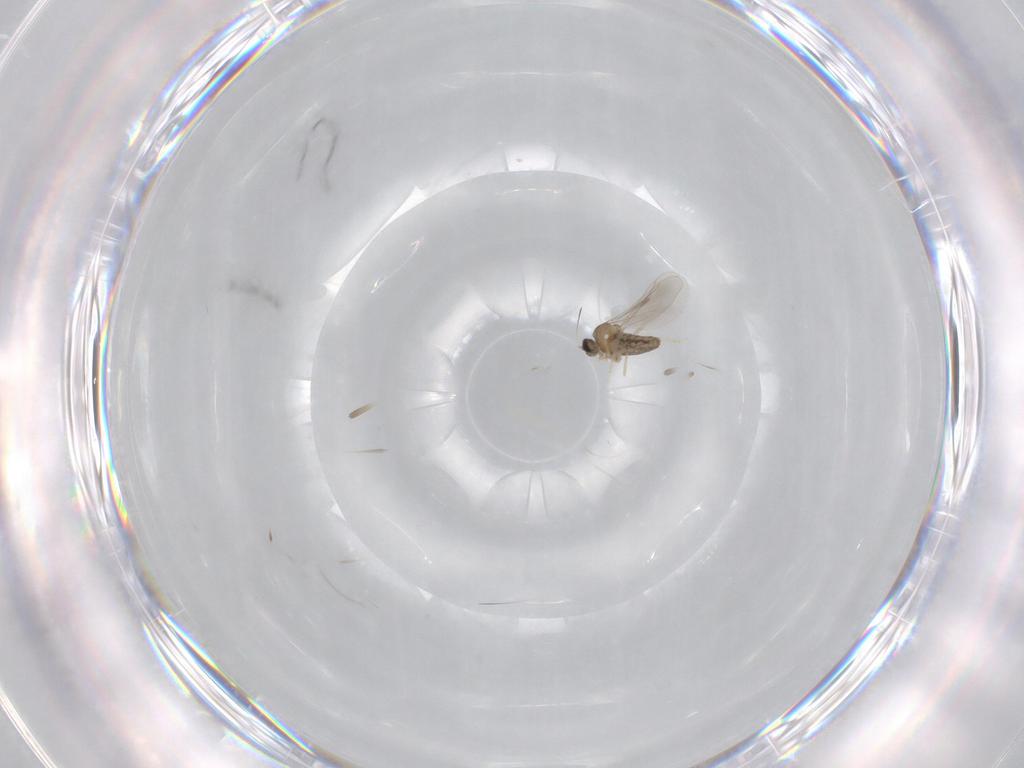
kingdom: Animalia
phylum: Arthropoda
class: Insecta
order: Diptera
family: Cecidomyiidae
